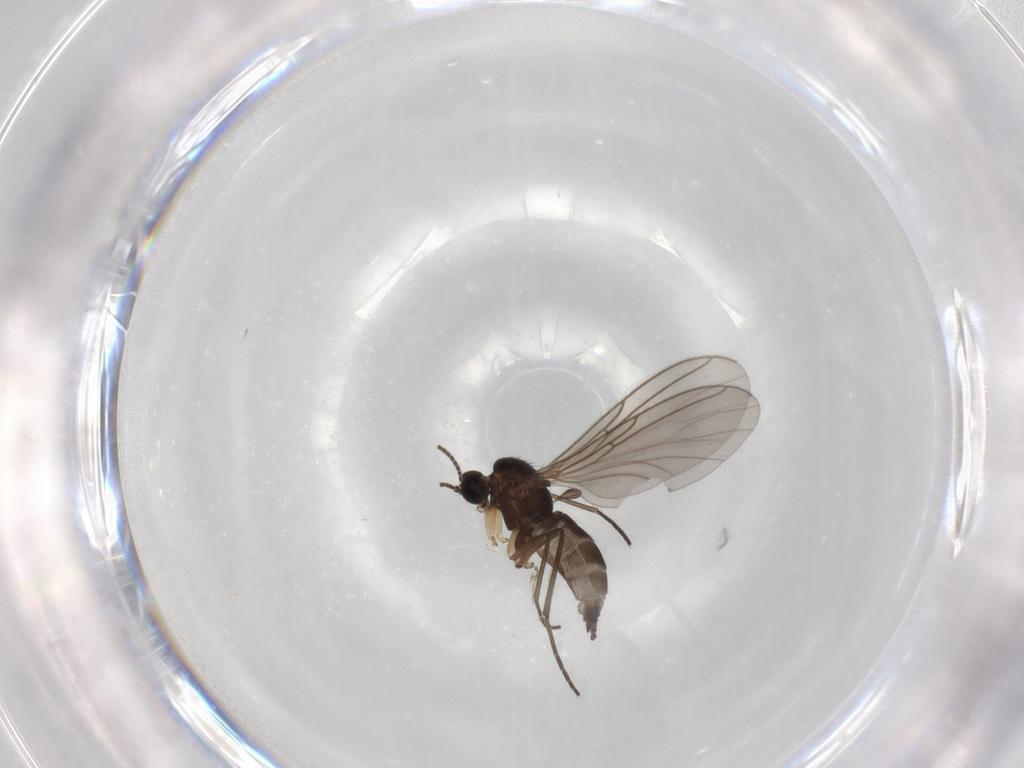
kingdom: Animalia
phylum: Arthropoda
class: Insecta
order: Diptera
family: Sciaridae
